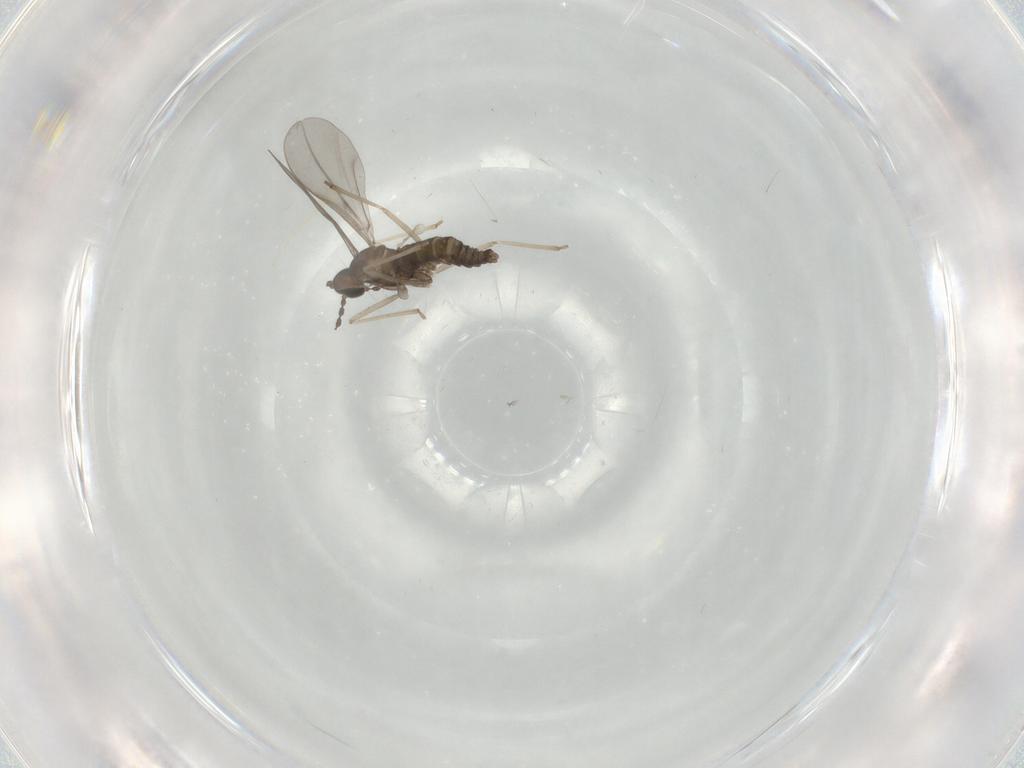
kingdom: Animalia
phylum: Arthropoda
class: Insecta
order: Diptera
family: Cecidomyiidae
